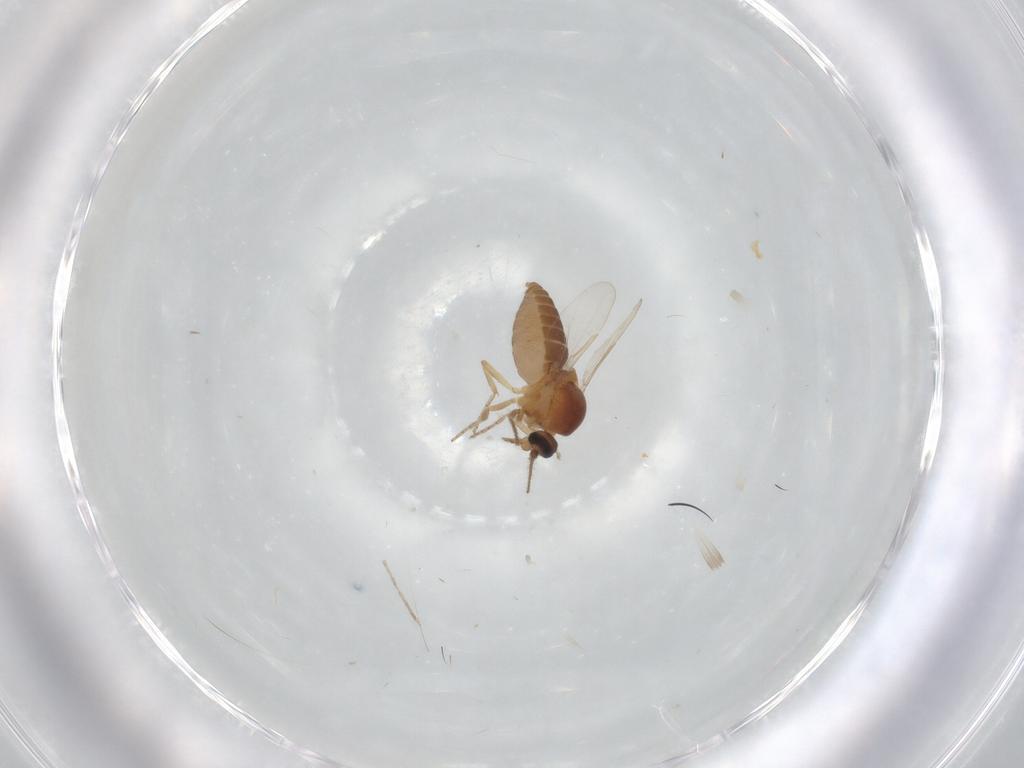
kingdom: Animalia
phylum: Arthropoda
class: Insecta
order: Diptera
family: Ceratopogonidae
